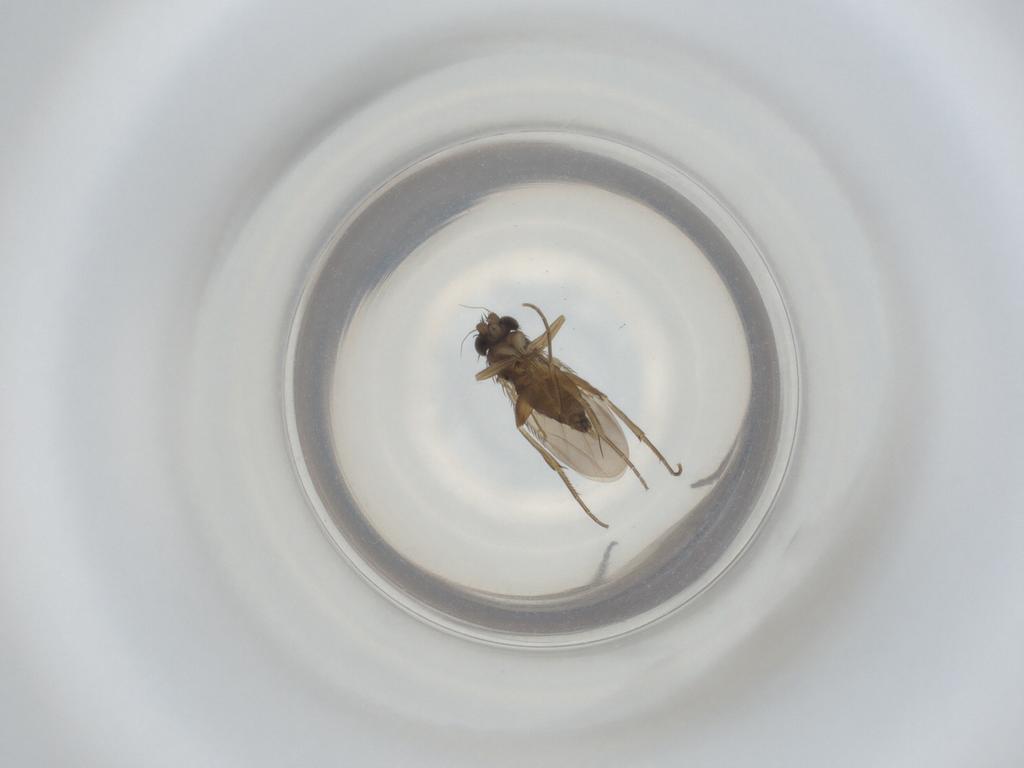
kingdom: Animalia
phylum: Arthropoda
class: Insecta
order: Diptera
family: Phoridae
